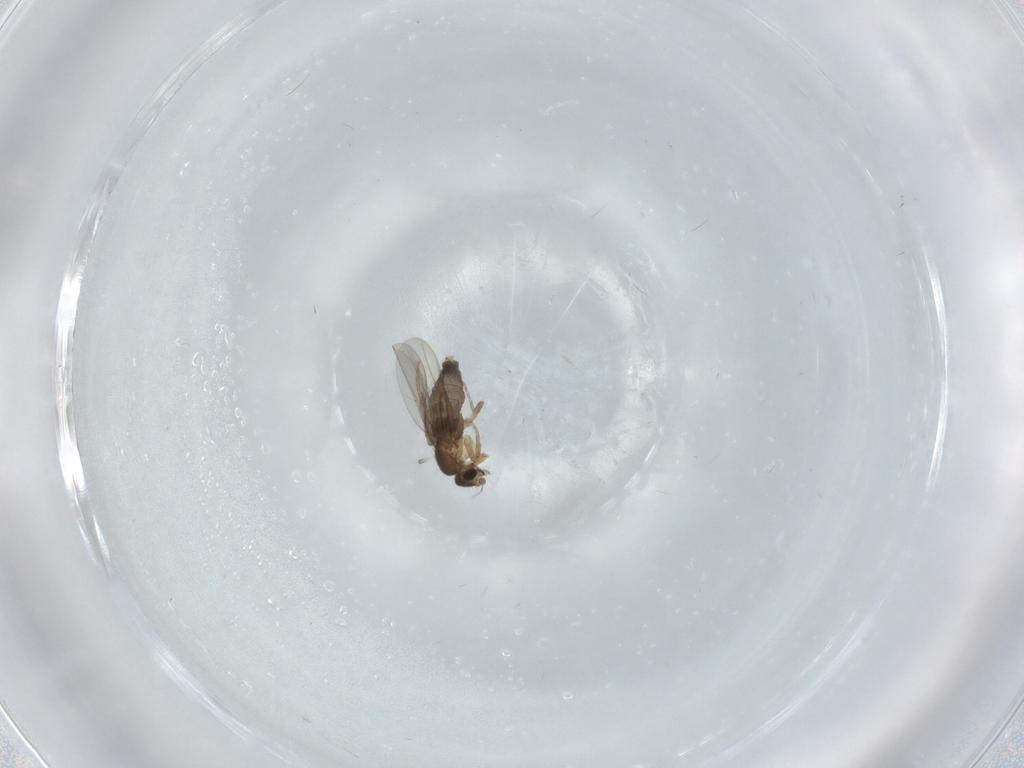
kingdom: Animalia
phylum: Arthropoda
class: Insecta
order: Diptera
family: Phoridae
